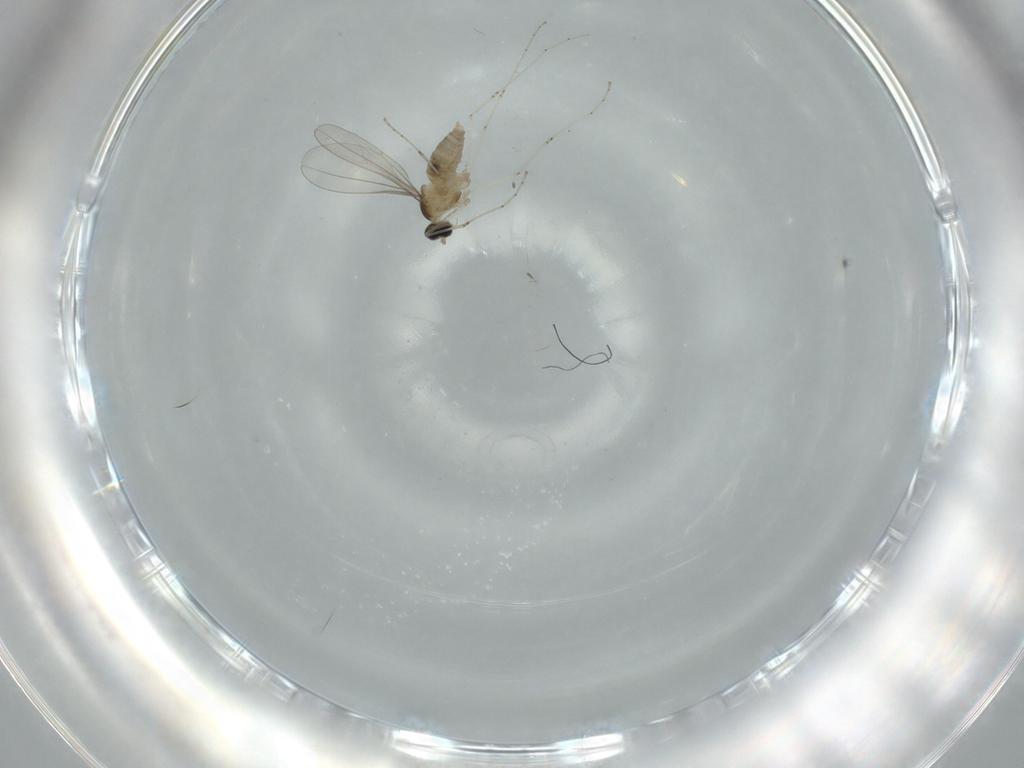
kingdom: Animalia
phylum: Arthropoda
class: Insecta
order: Diptera
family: Cecidomyiidae
